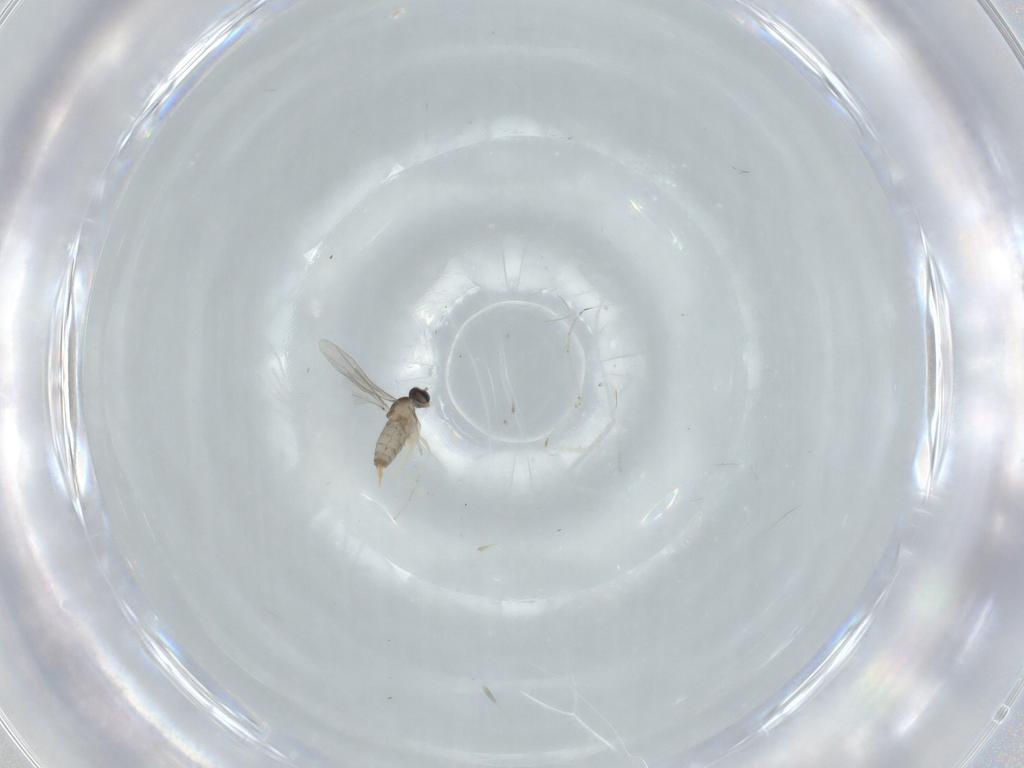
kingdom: Animalia
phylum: Arthropoda
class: Insecta
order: Diptera
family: Cecidomyiidae
